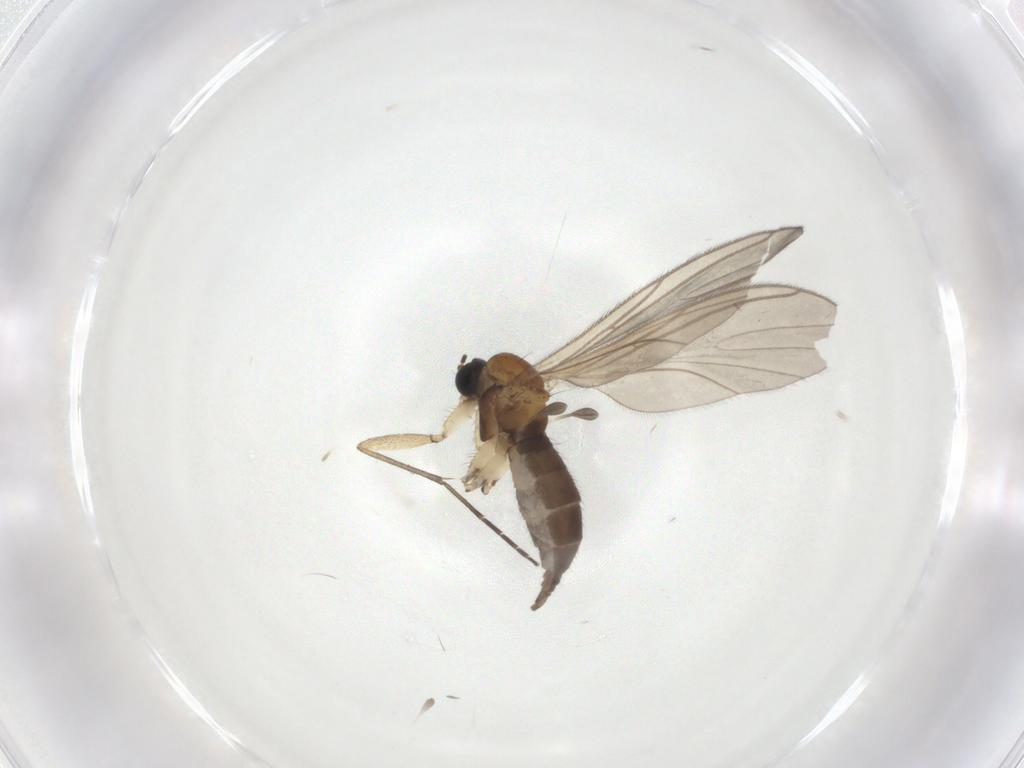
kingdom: Animalia
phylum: Arthropoda
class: Insecta
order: Diptera
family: Sciaridae
